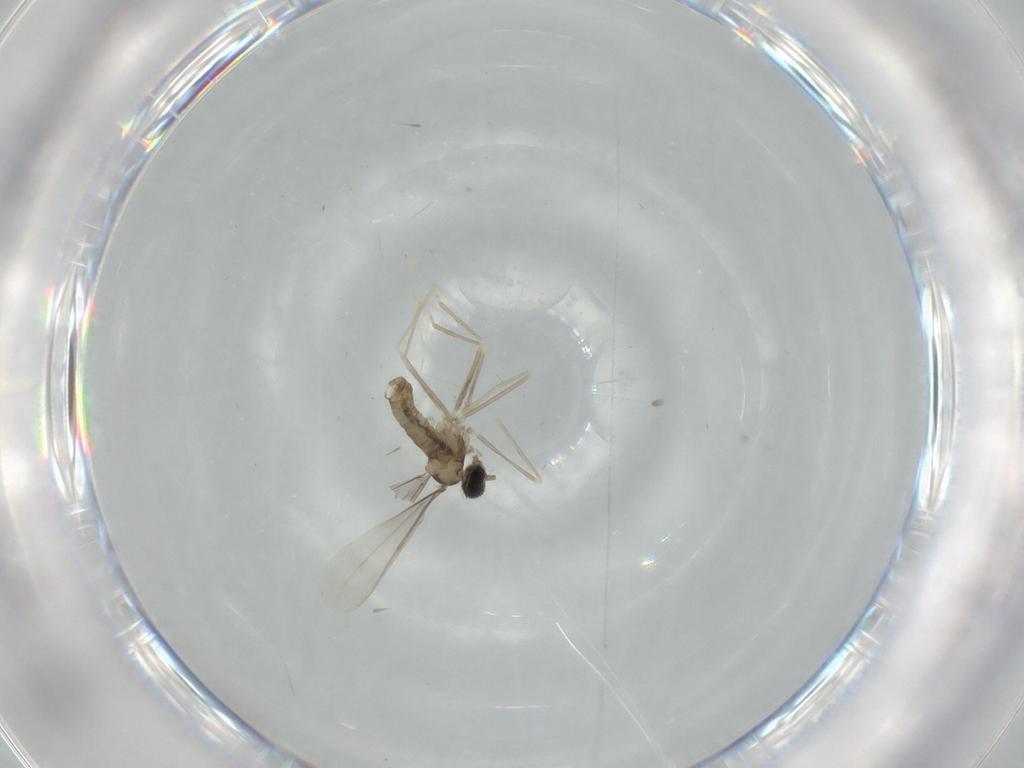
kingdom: Animalia
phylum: Arthropoda
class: Insecta
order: Diptera
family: Cecidomyiidae
